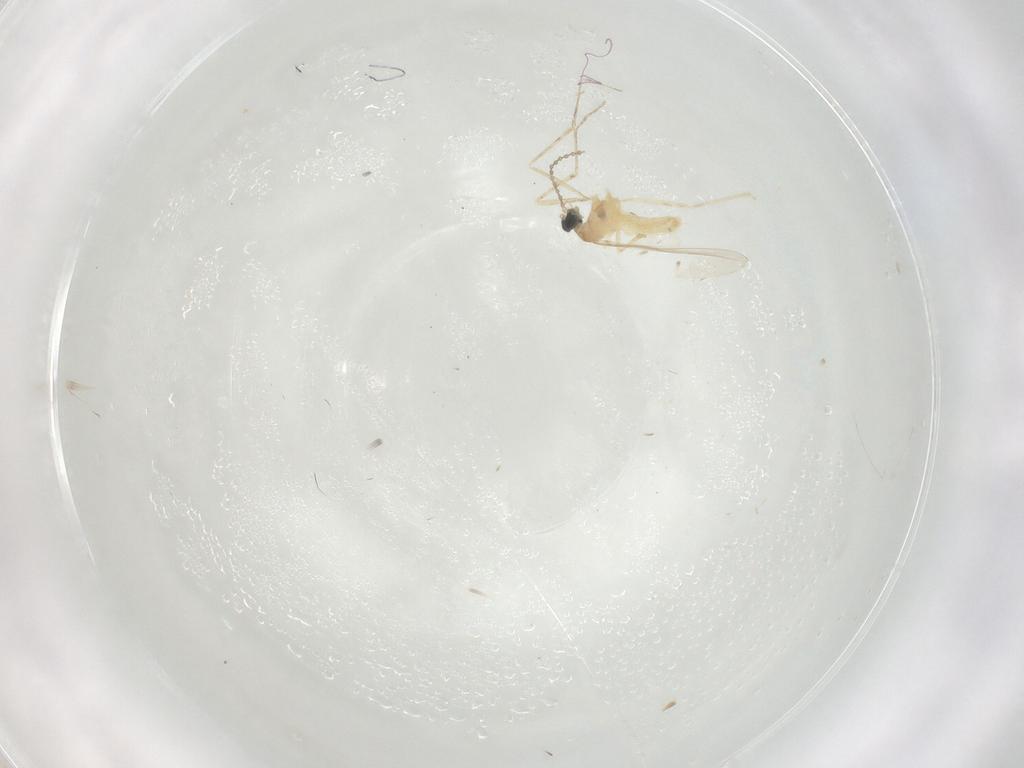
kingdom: Animalia
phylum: Arthropoda
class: Insecta
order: Diptera
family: Cecidomyiidae
